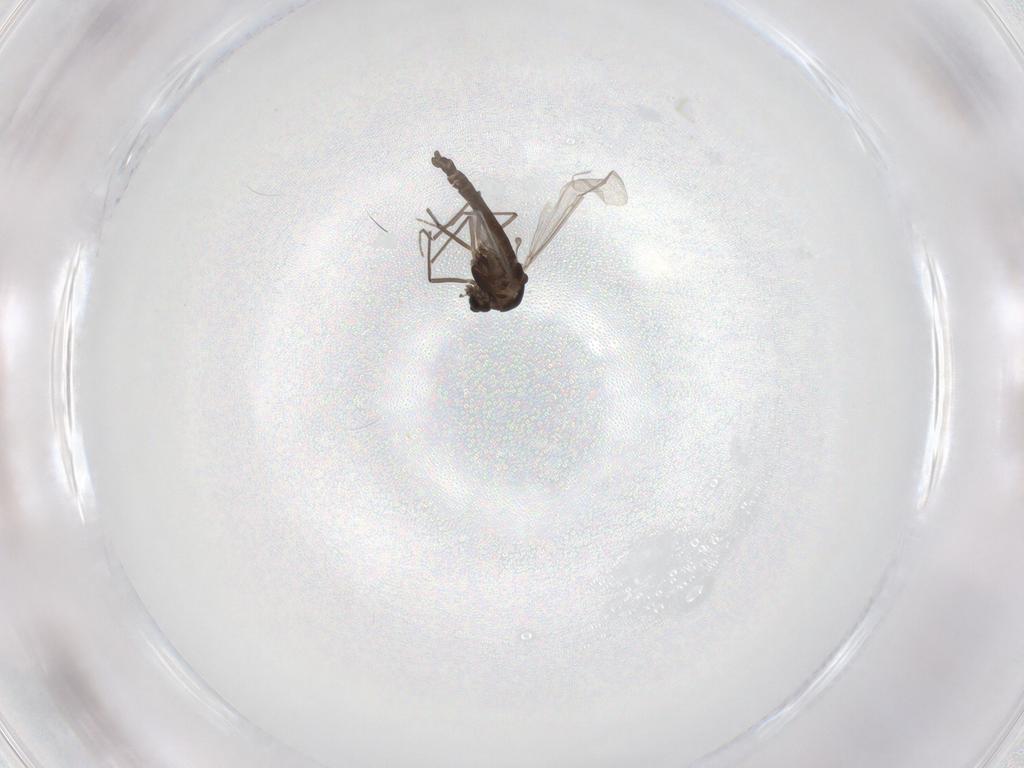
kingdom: Animalia
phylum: Arthropoda
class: Insecta
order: Diptera
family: Chironomidae
